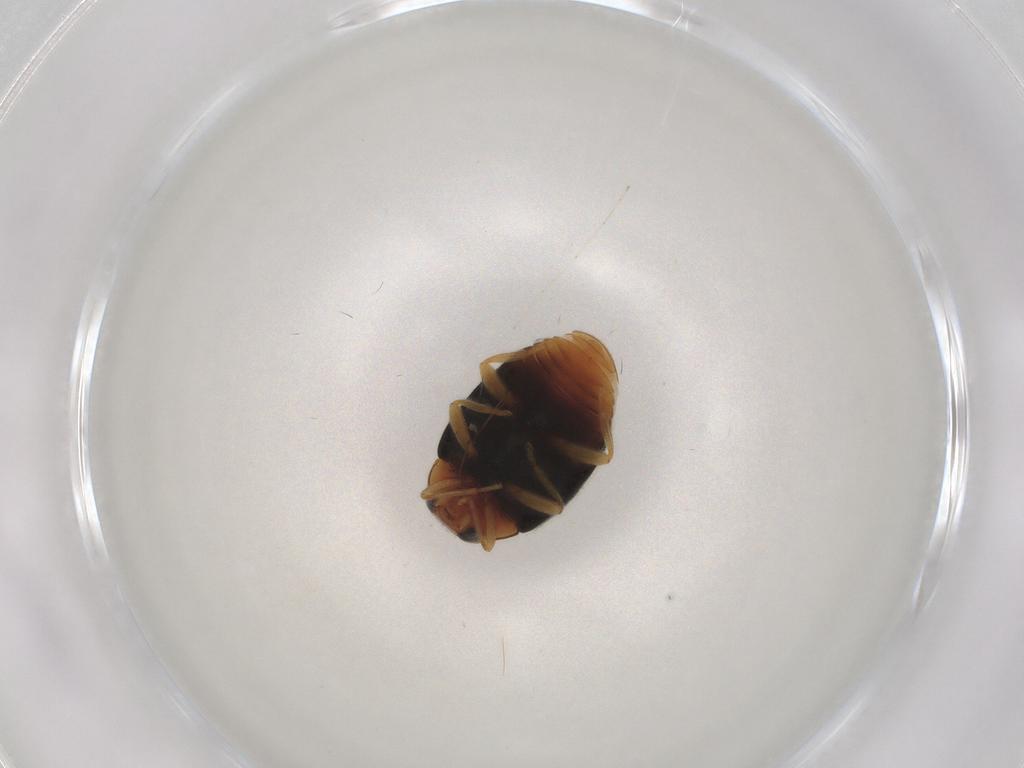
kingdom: Animalia
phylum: Arthropoda
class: Insecta
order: Coleoptera
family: Coccinellidae
